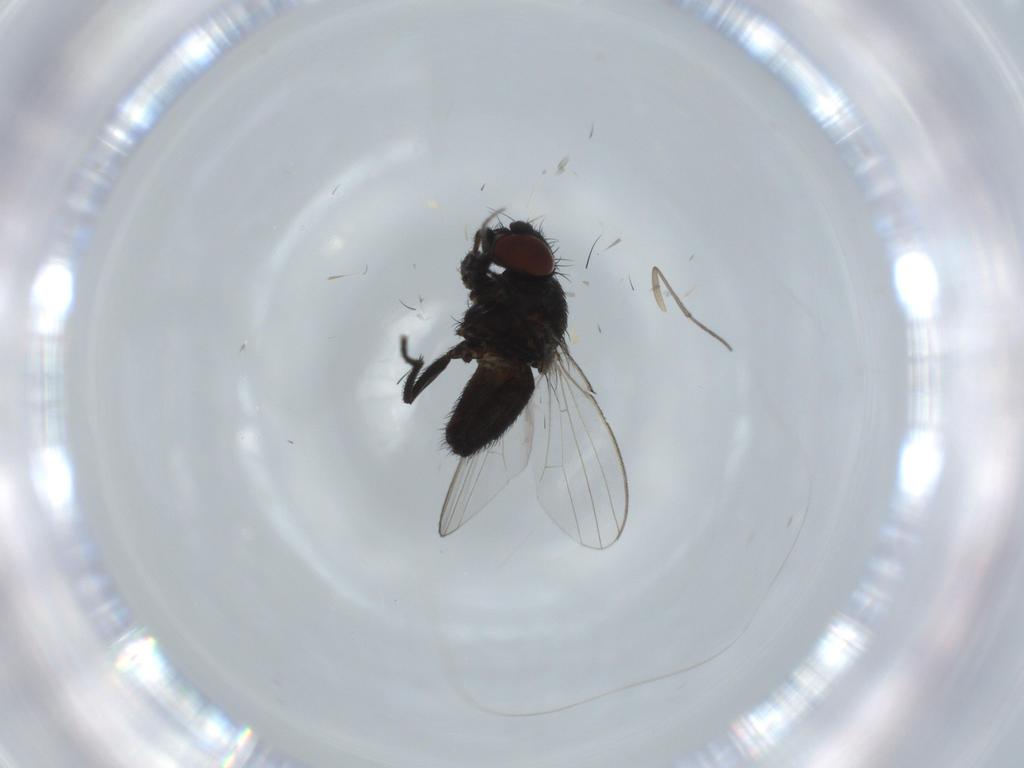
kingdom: Animalia
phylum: Arthropoda
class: Insecta
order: Diptera
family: Milichiidae
